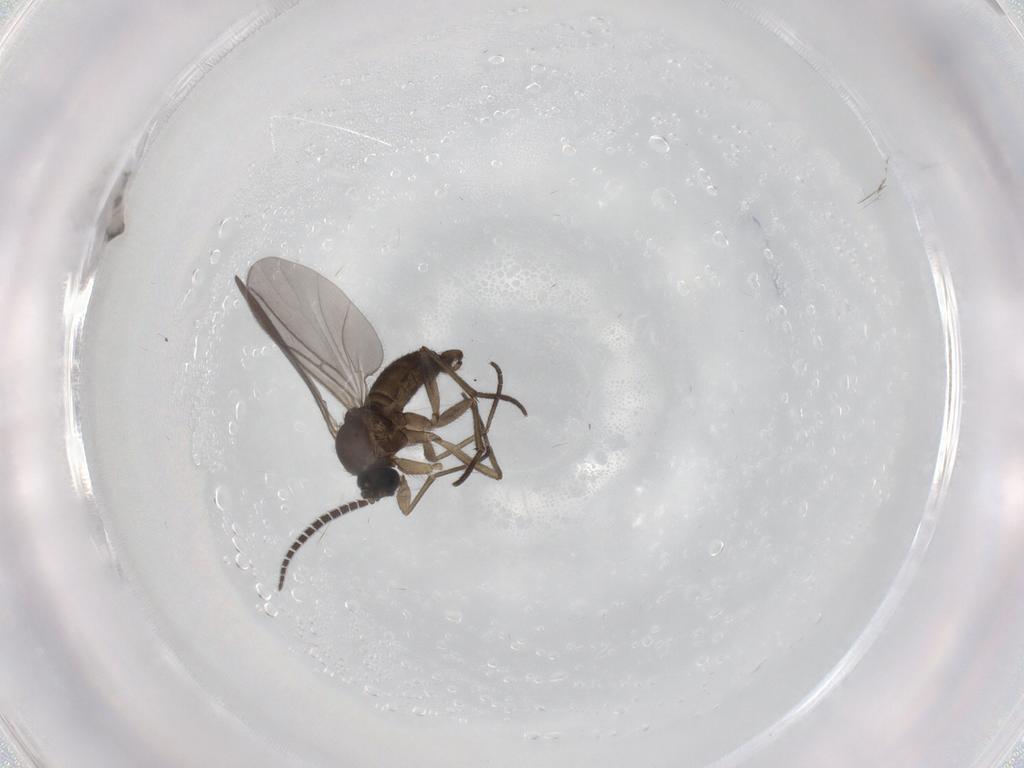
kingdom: Animalia
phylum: Arthropoda
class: Insecta
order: Diptera
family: Sciaridae
